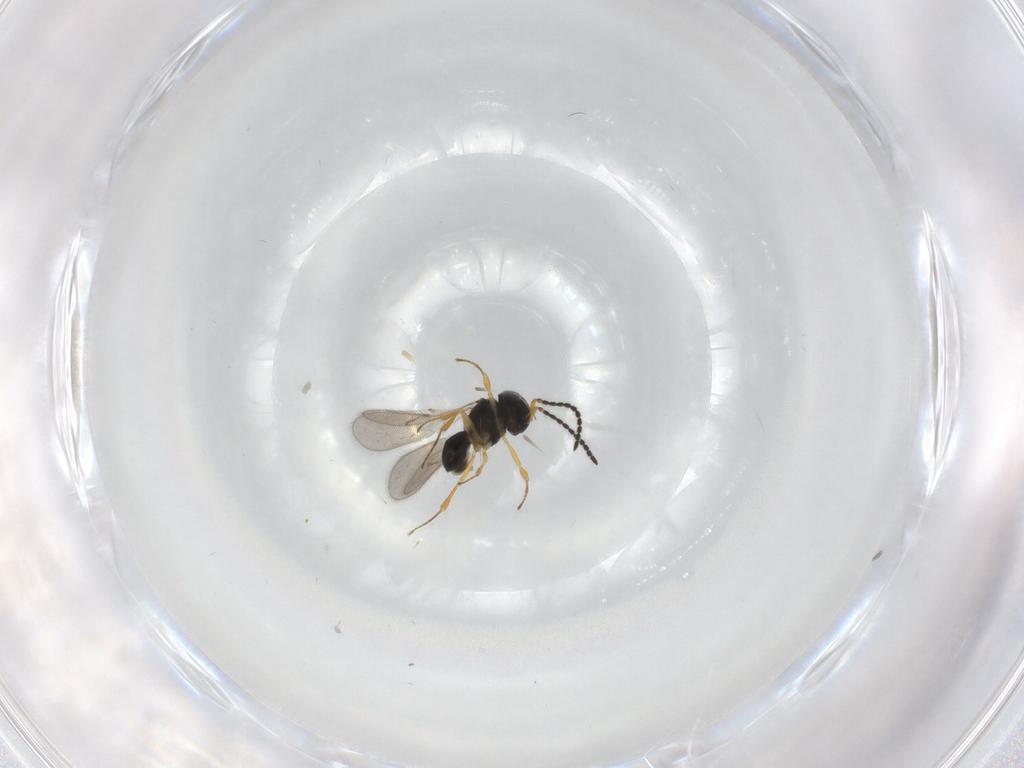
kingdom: Animalia
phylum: Arthropoda
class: Insecta
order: Hymenoptera
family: Scelionidae
